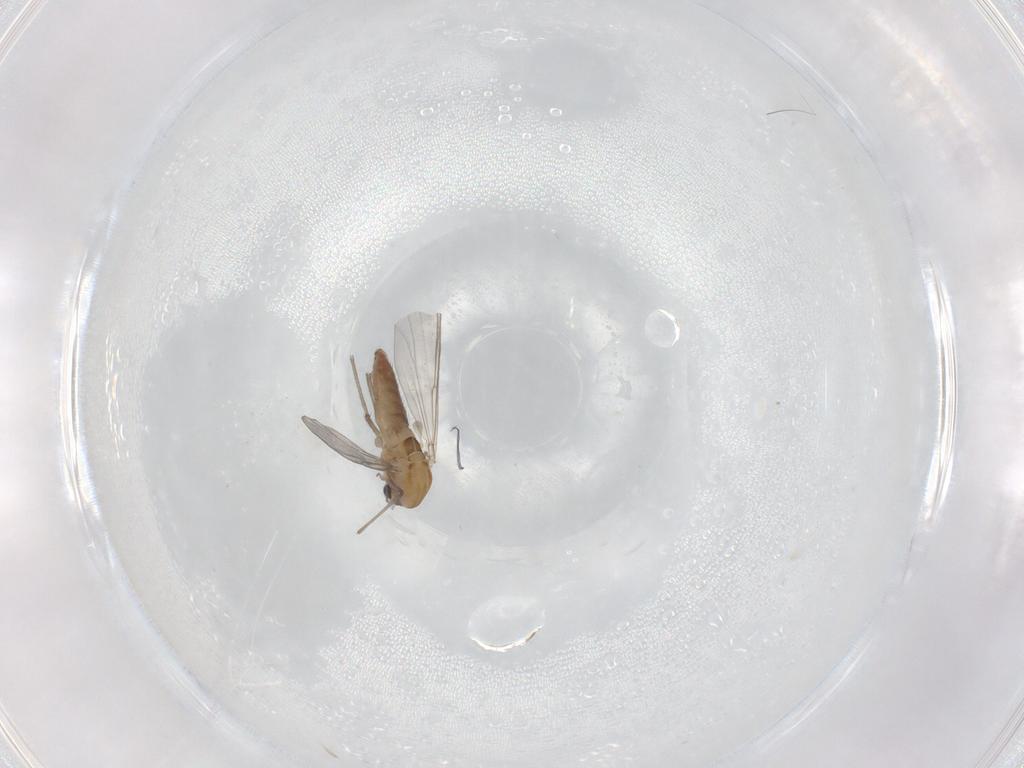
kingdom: Animalia
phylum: Arthropoda
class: Insecta
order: Diptera
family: Chironomidae
